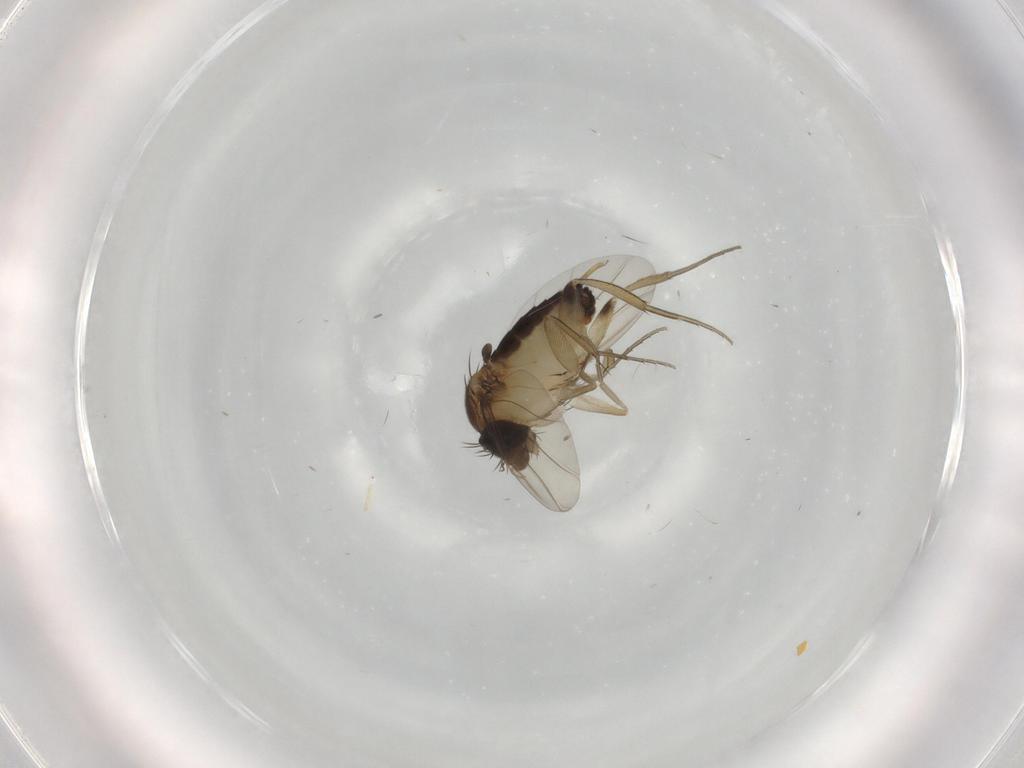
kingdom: Animalia
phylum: Arthropoda
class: Insecta
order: Diptera
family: Phoridae
